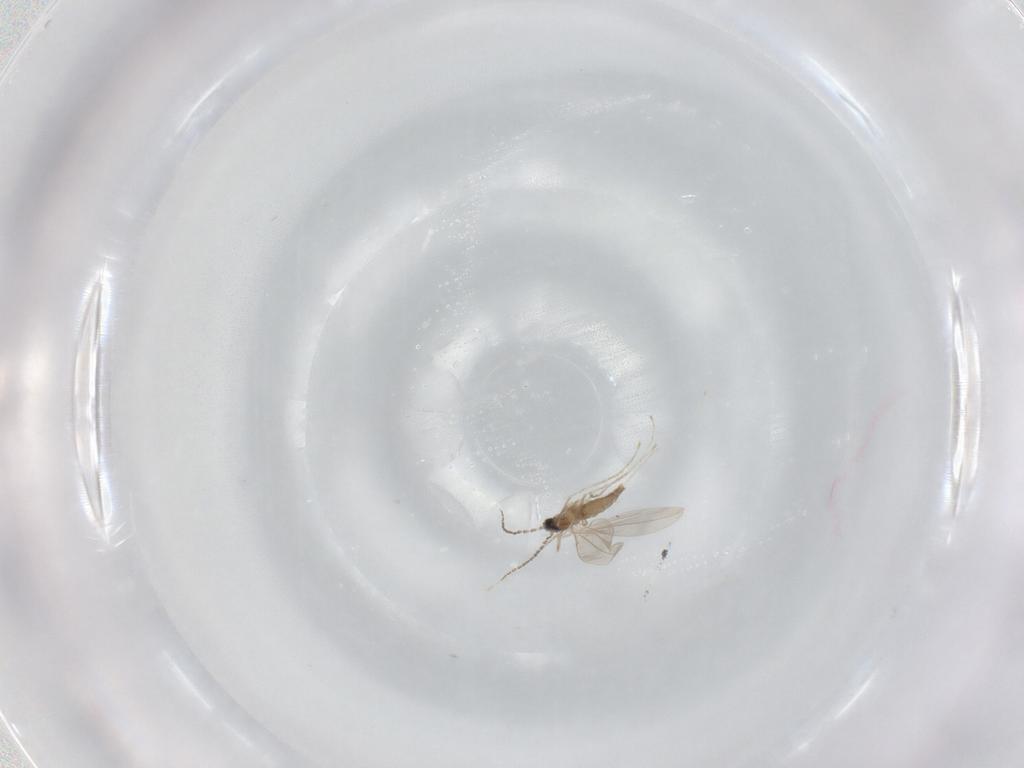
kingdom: Animalia
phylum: Arthropoda
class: Insecta
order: Diptera
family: Cecidomyiidae
